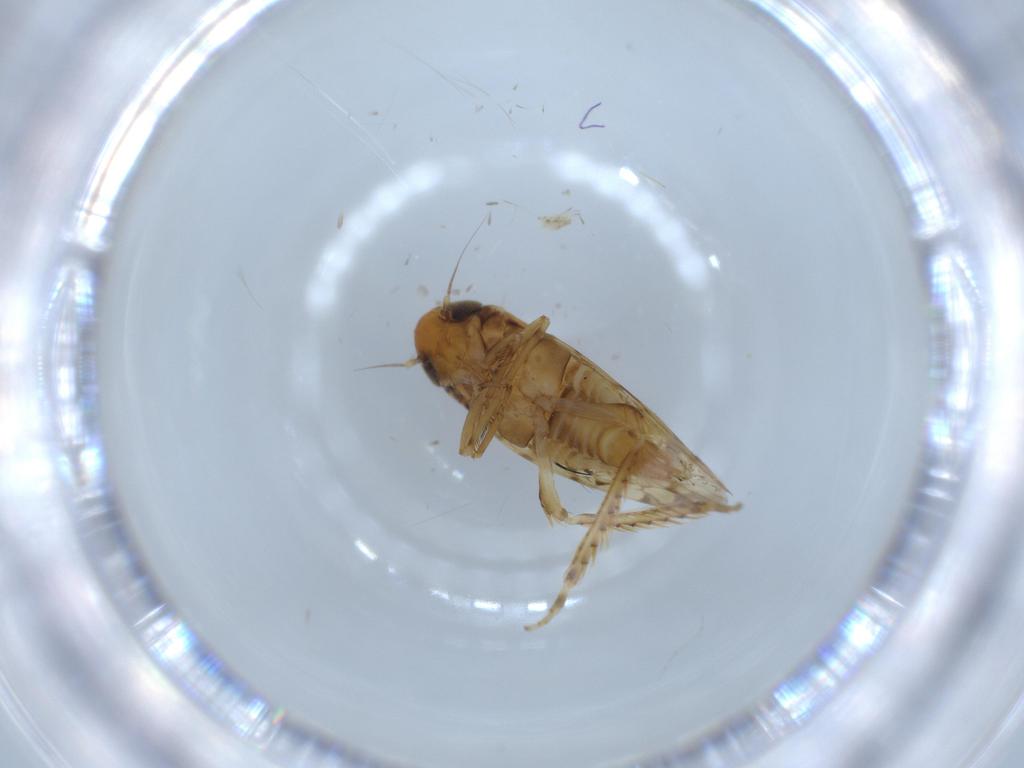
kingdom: Animalia
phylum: Arthropoda
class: Insecta
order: Hemiptera
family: Cicadellidae
